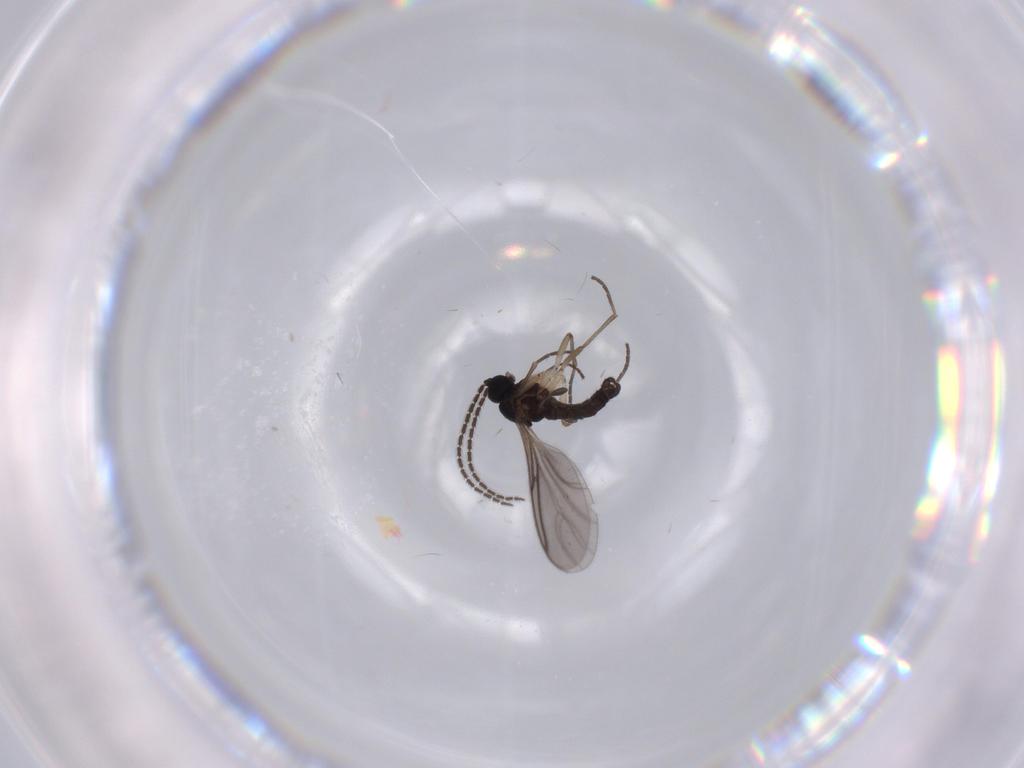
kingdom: Animalia
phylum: Arthropoda
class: Insecta
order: Diptera
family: Sciaridae
